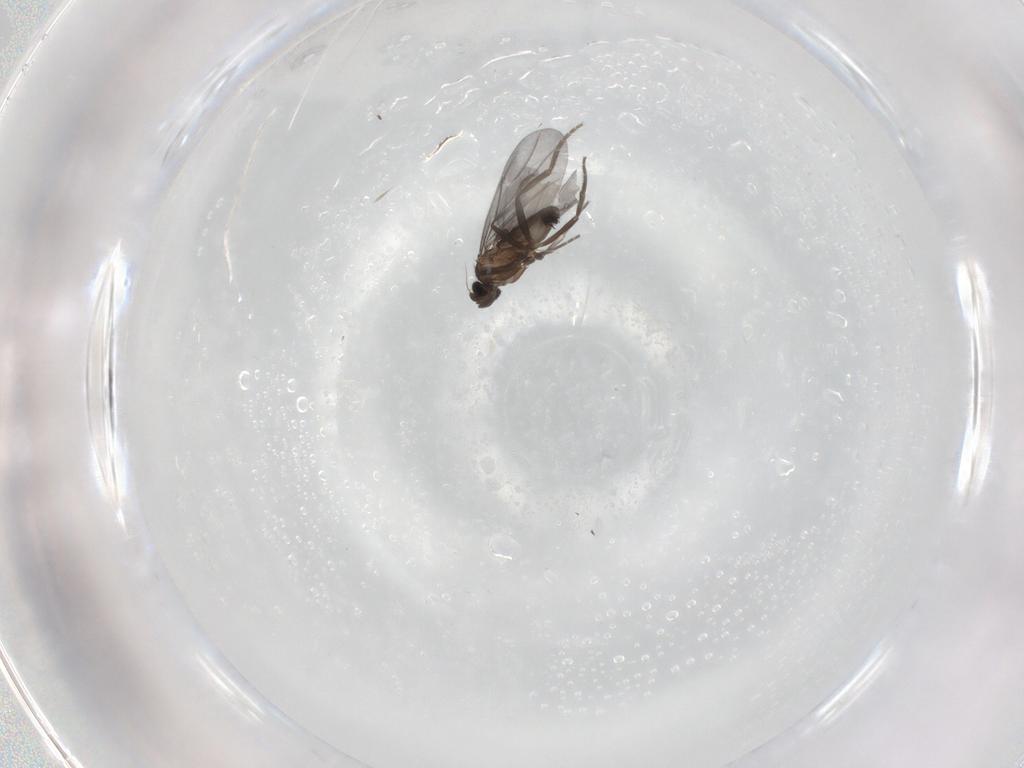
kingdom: Animalia
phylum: Arthropoda
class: Insecta
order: Diptera
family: Phoridae
